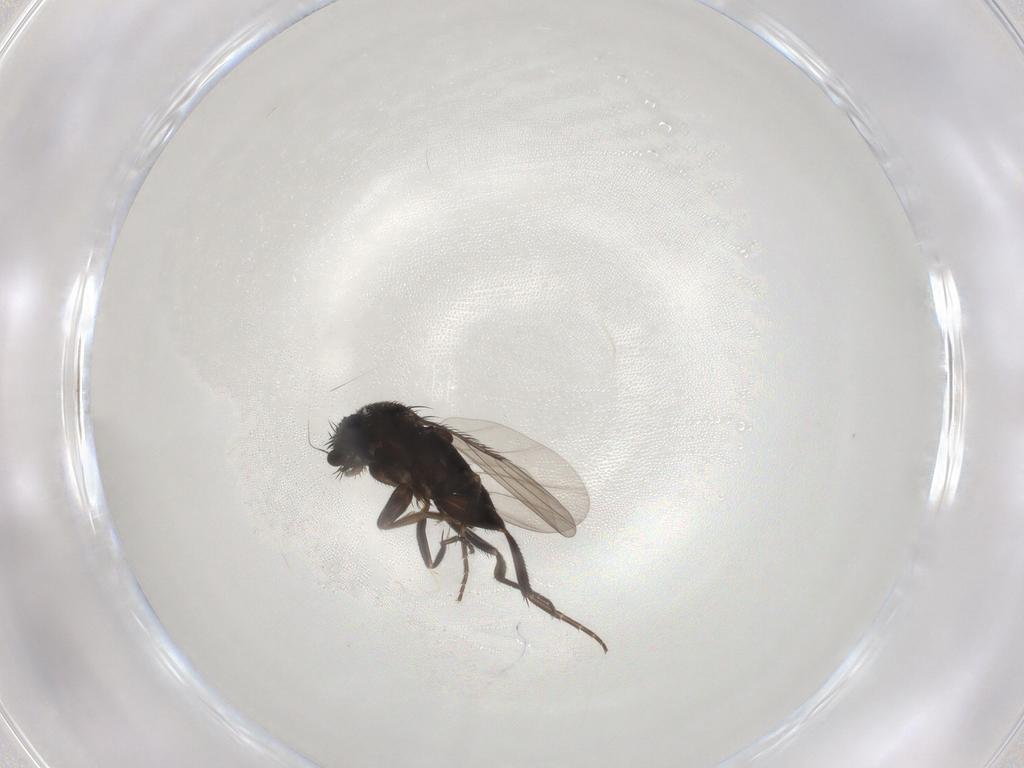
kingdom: Animalia
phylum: Arthropoda
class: Insecta
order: Diptera
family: Phoridae
